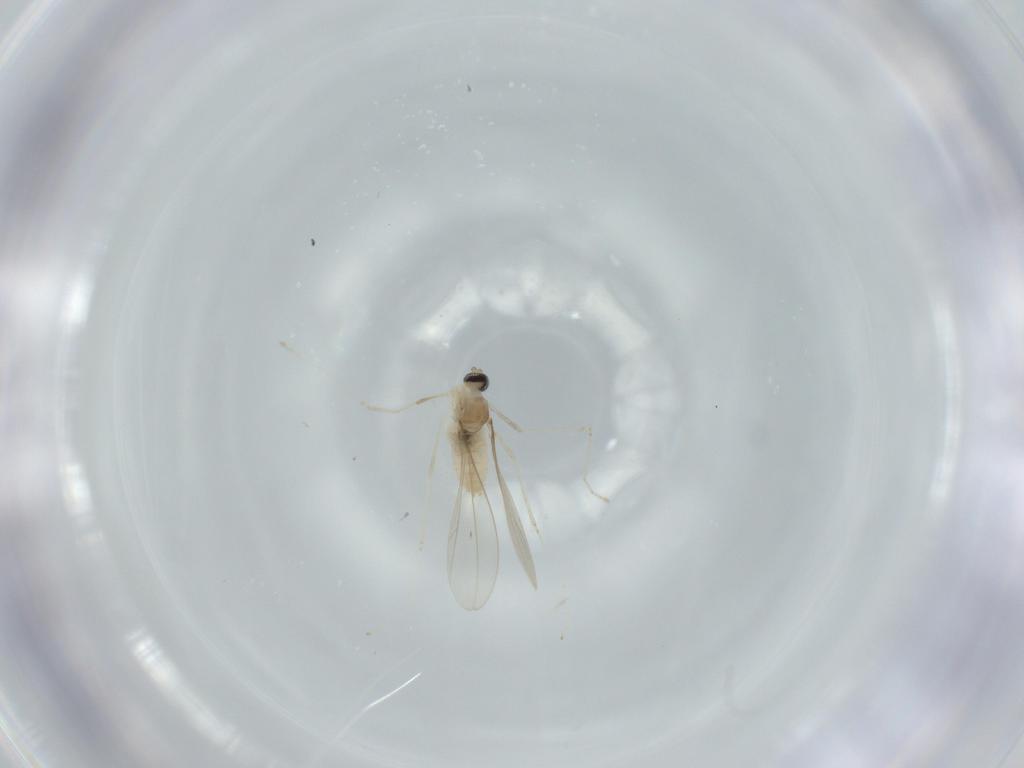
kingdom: Animalia
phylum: Arthropoda
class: Insecta
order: Diptera
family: Cecidomyiidae
